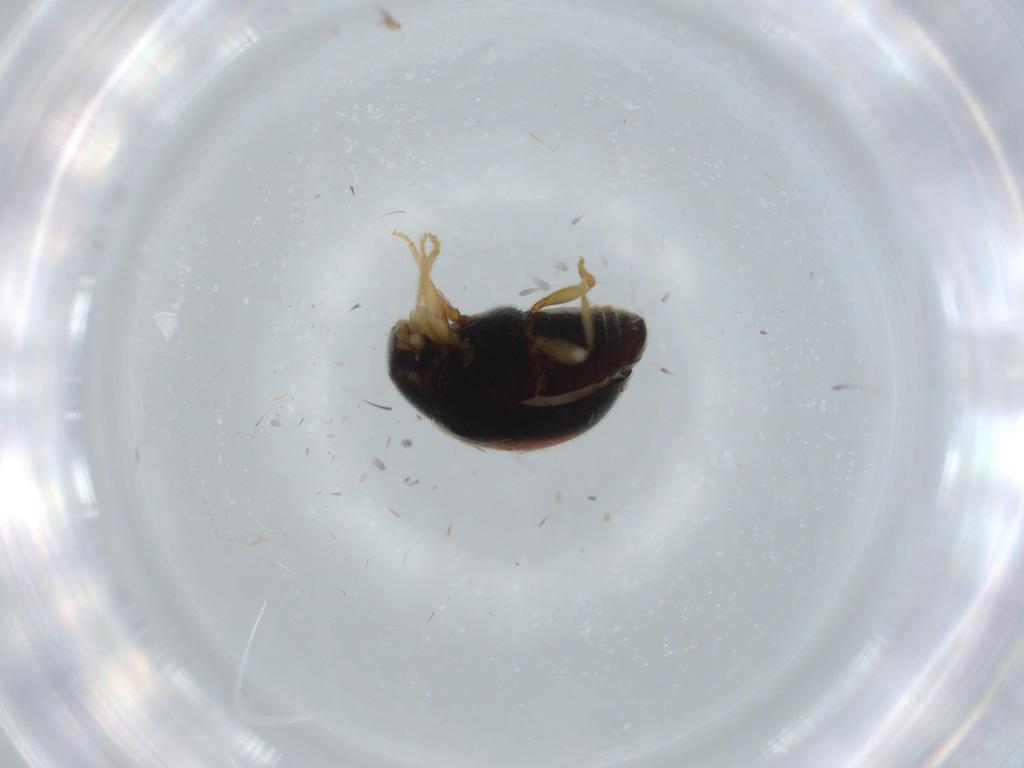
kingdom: Animalia
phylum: Arthropoda
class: Insecta
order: Coleoptera
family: Coccinellidae
